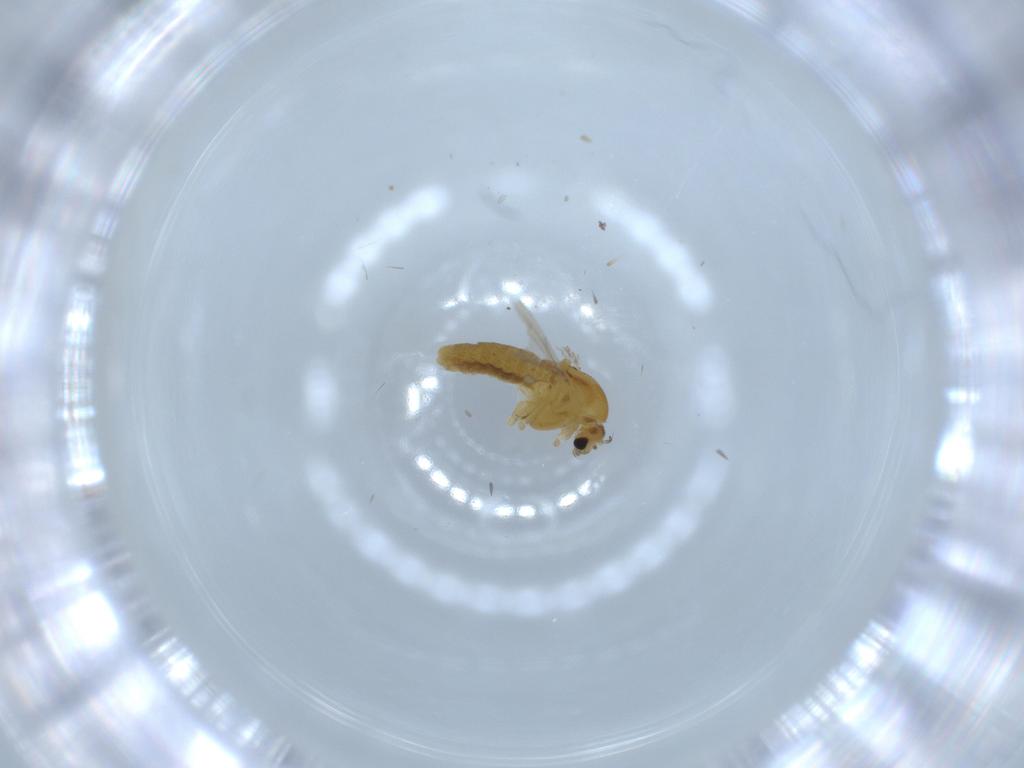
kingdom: Animalia
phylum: Arthropoda
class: Insecta
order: Diptera
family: Chironomidae
